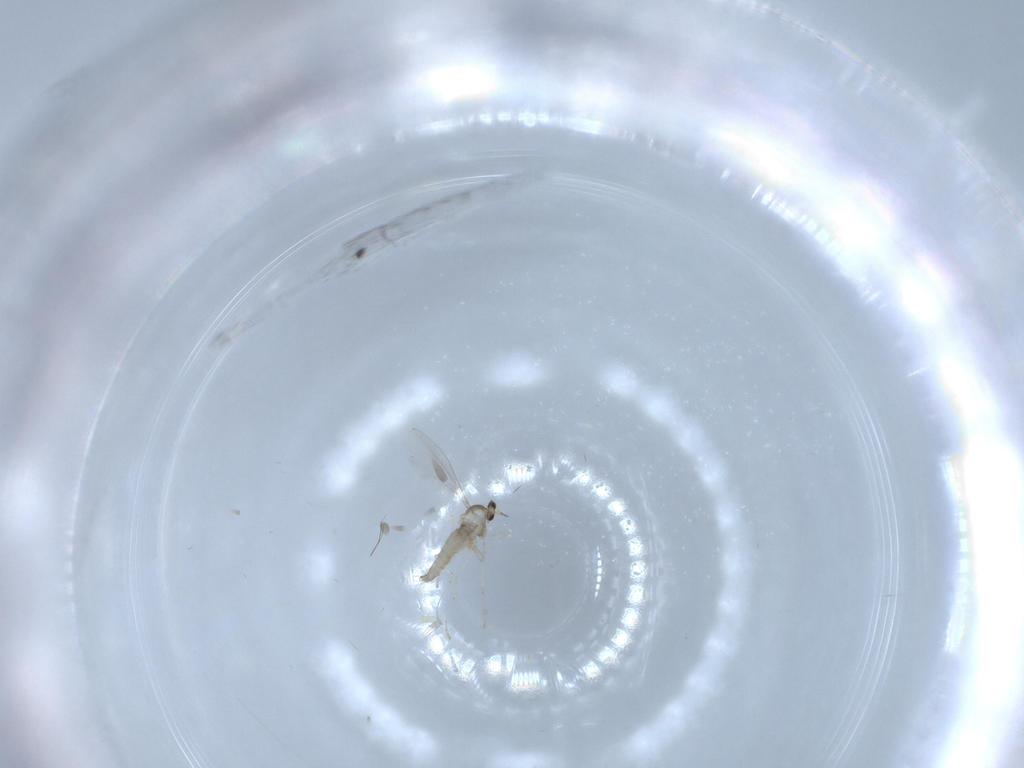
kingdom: Animalia
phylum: Arthropoda
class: Insecta
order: Diptera
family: Cecidomyiidae
